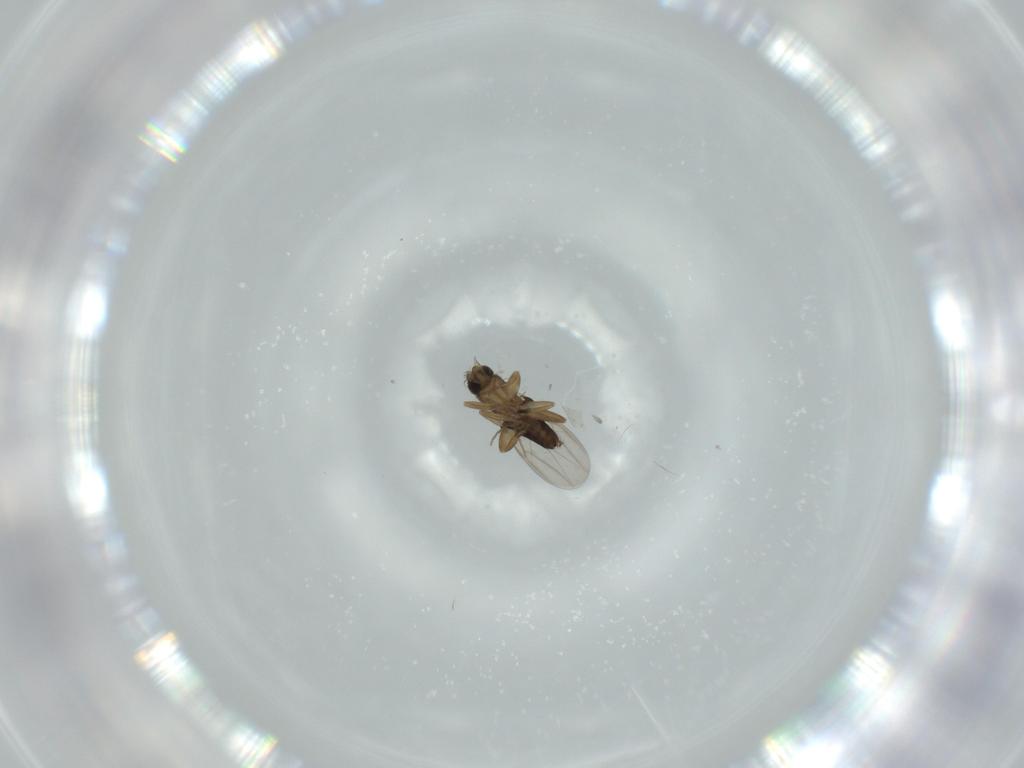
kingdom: Animalia
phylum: Arthropoda
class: Insecta
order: Diptera
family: Phoridae
